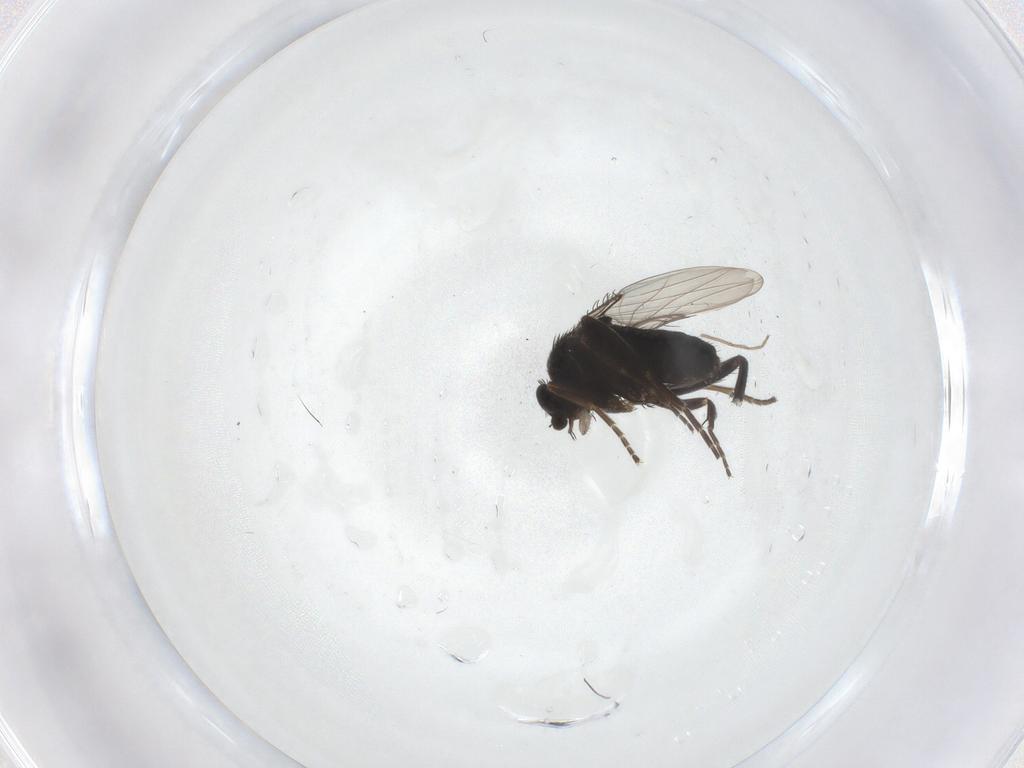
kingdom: Animalia
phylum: Arthropoda
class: Insecta
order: Diptera
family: Chironomidae
